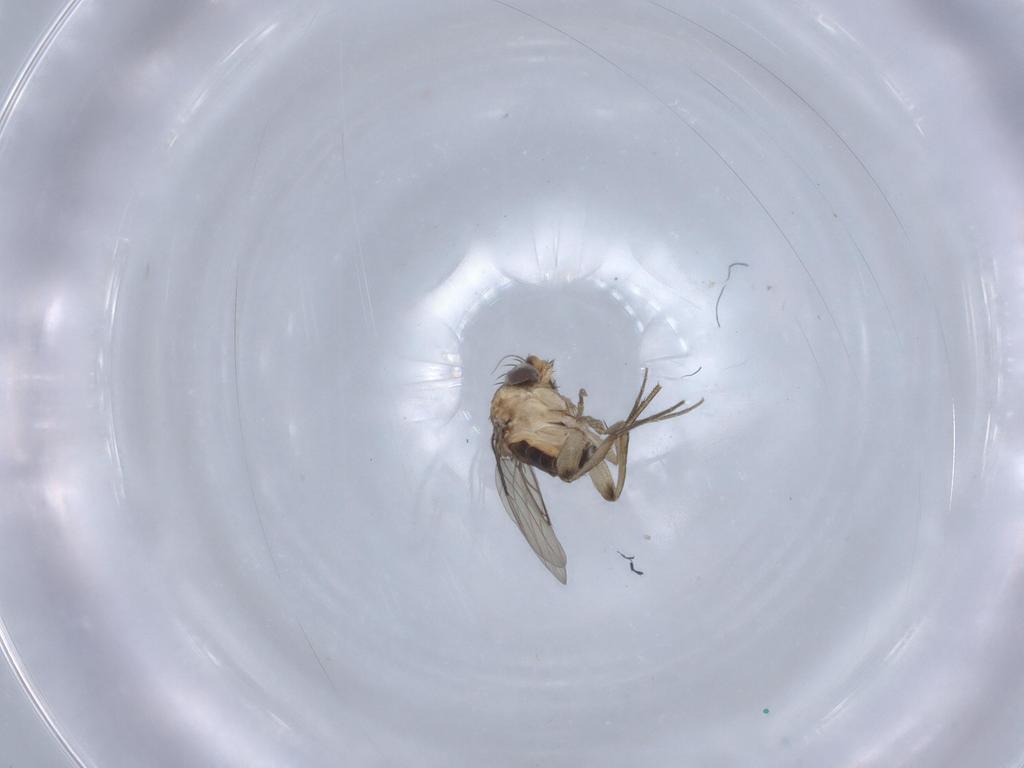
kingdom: Animalia
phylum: Arthropoda
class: Insecta
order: Diptera
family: Phoridae
